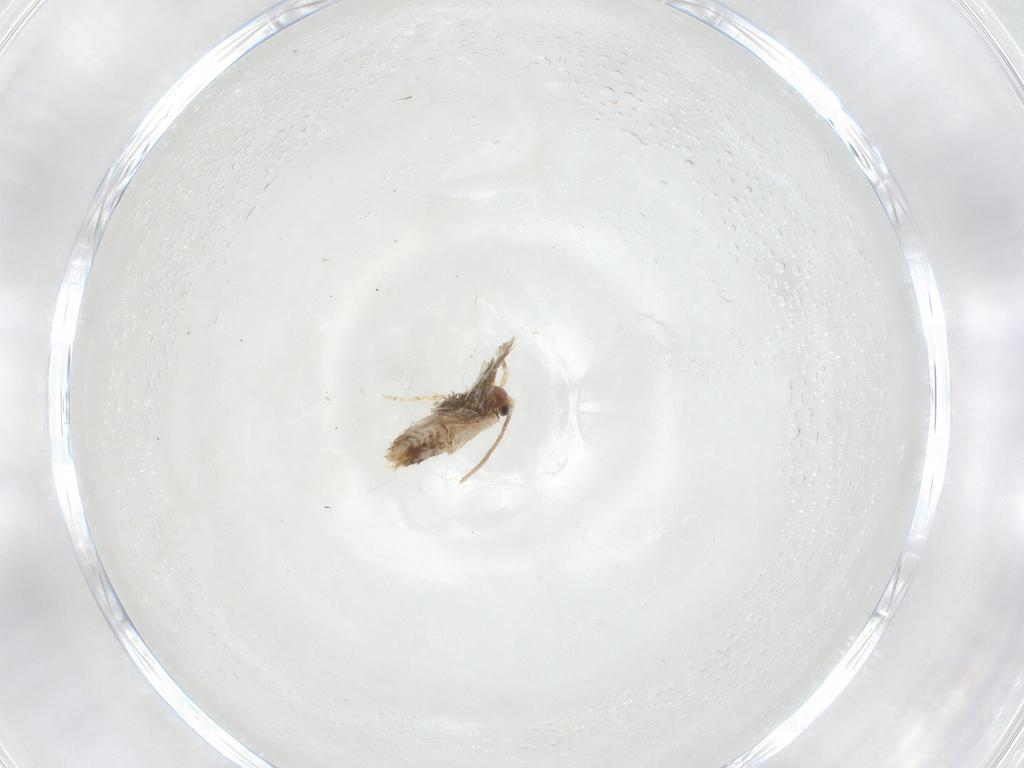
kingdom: Animalia
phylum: Arthropoda
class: Insecta
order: Lepidoptera
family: Nepticulidae
